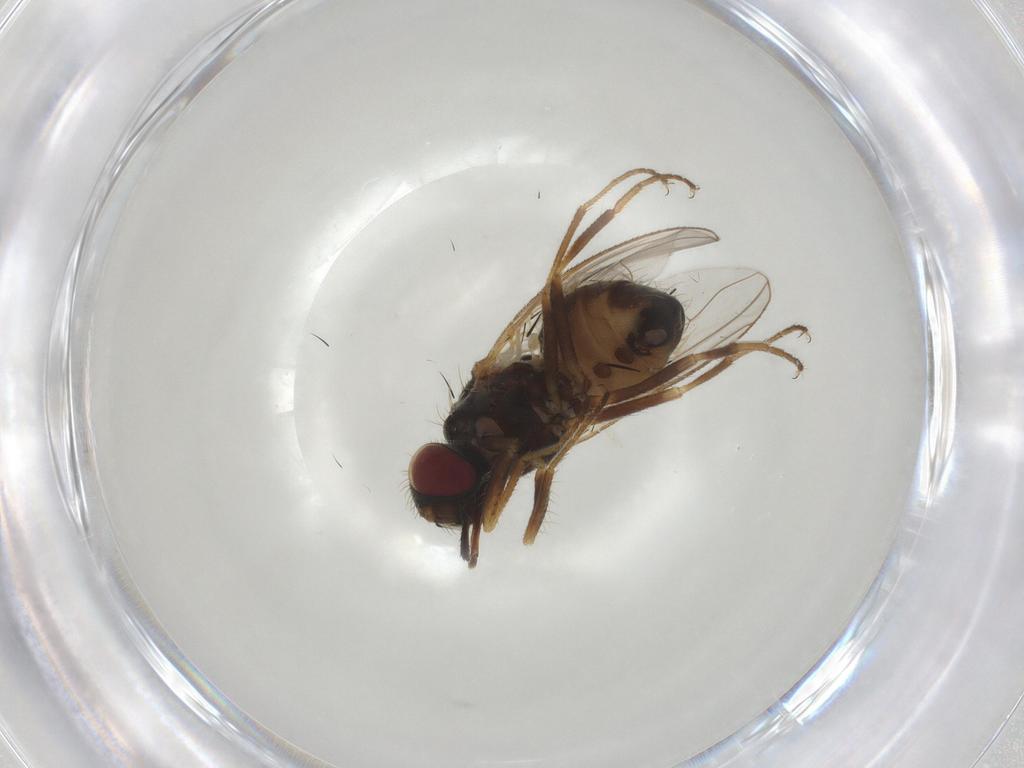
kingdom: Animalia
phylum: Arthropoda
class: Insecta
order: Diptera
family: Muscidae
